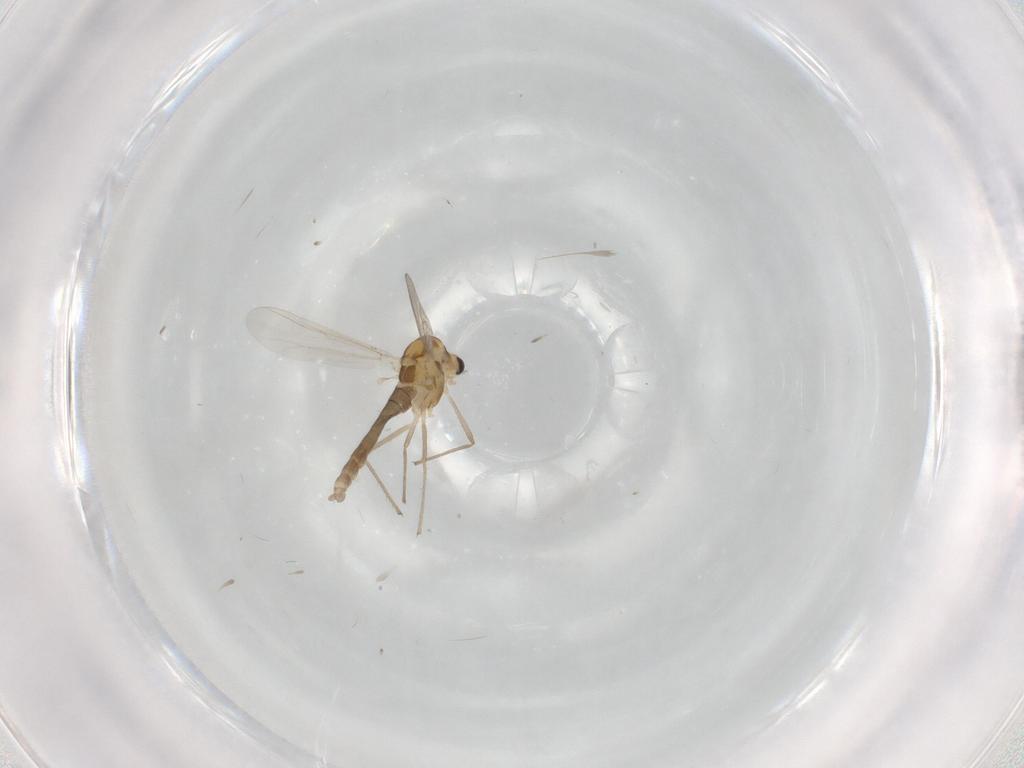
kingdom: Animalia
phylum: Arthropoda
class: Insecta
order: Diptera
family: Chironomidae
